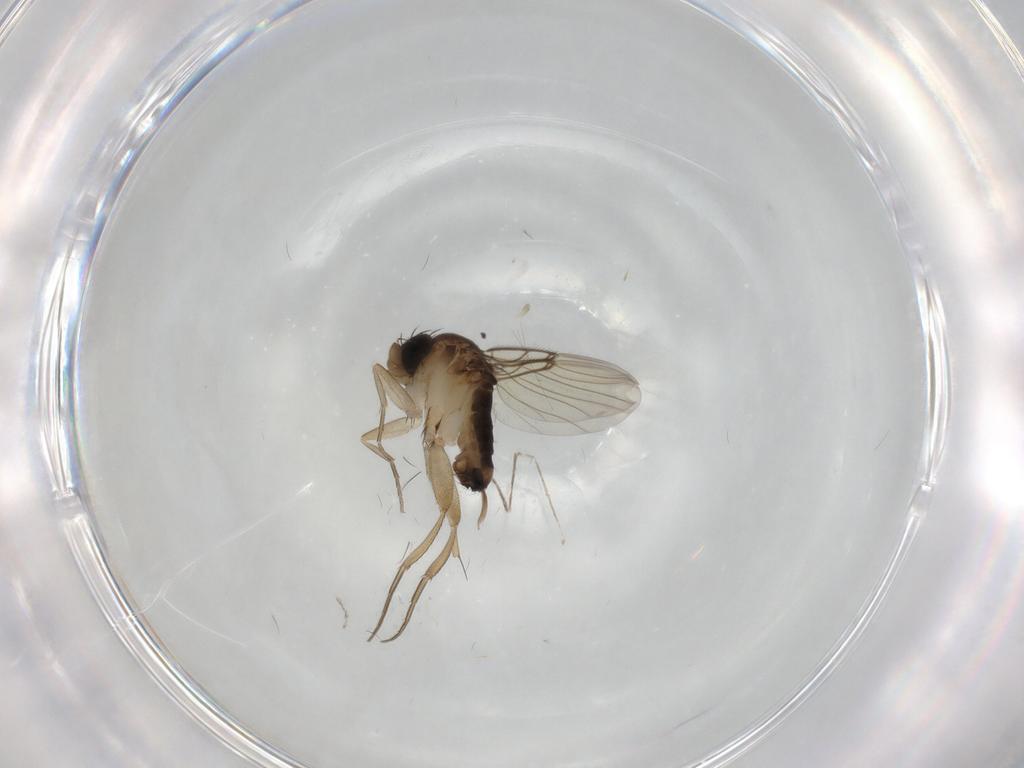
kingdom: Animalia
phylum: Arthropoda
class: Insecta
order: Diptera
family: Phoridae
